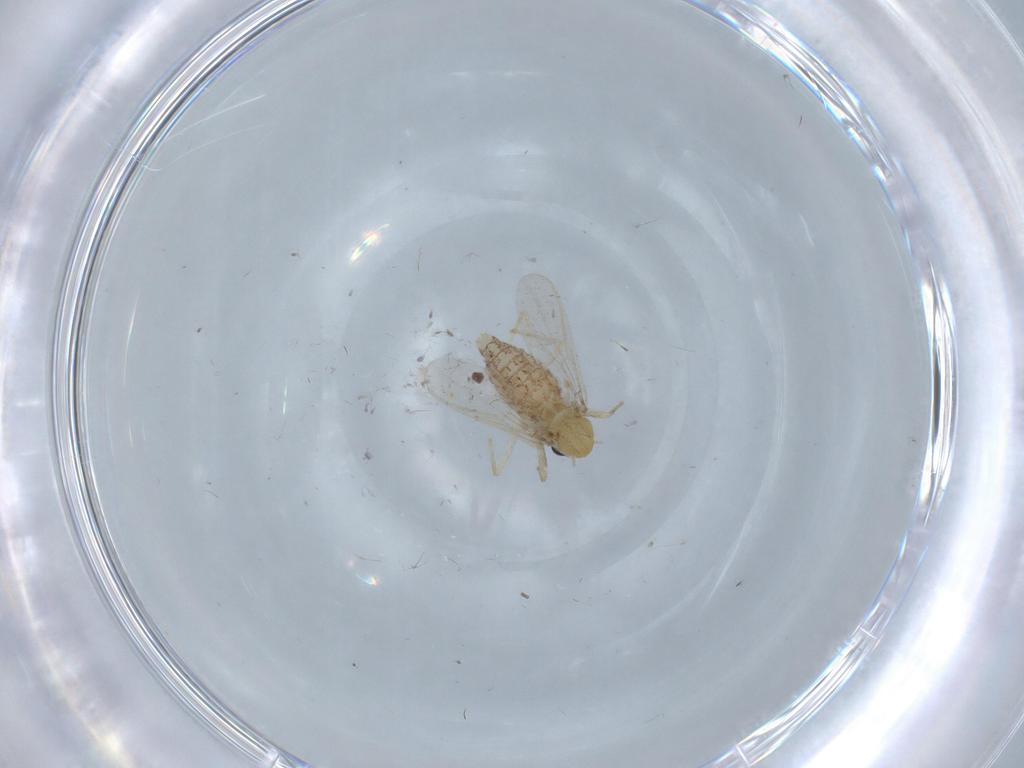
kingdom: Animalia
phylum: Arthropoda
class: Insecta
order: Diptera
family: Chironomidae
